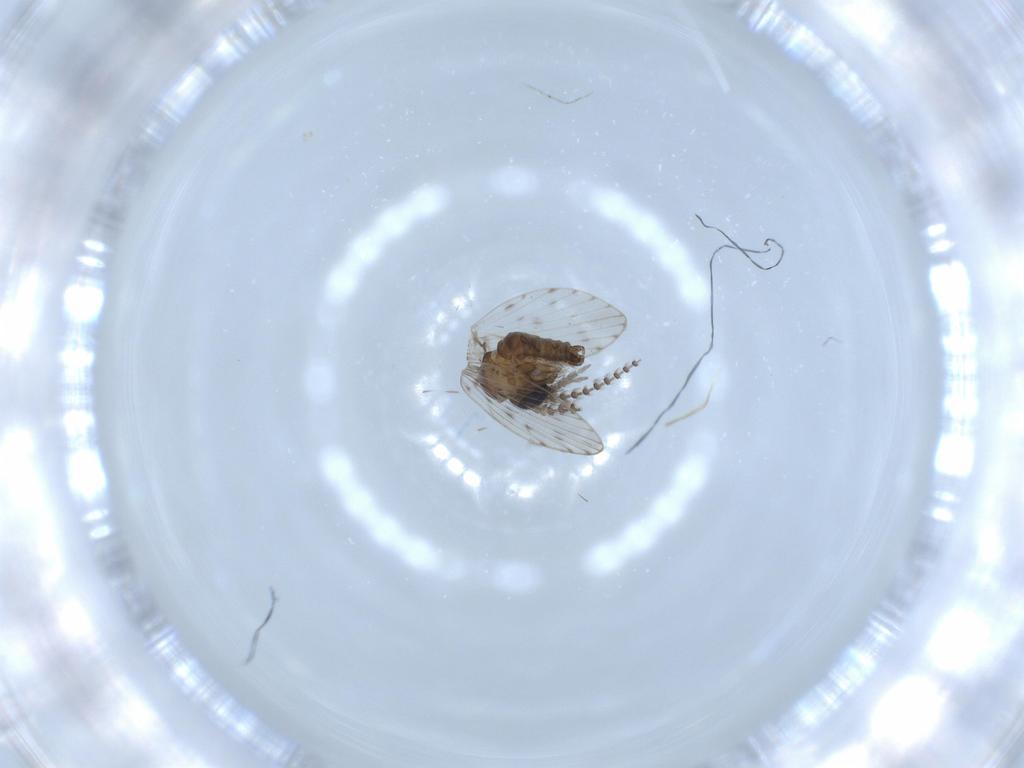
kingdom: Animalia
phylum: Arthropoda
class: Insecta
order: Diptera
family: Psychodidae
